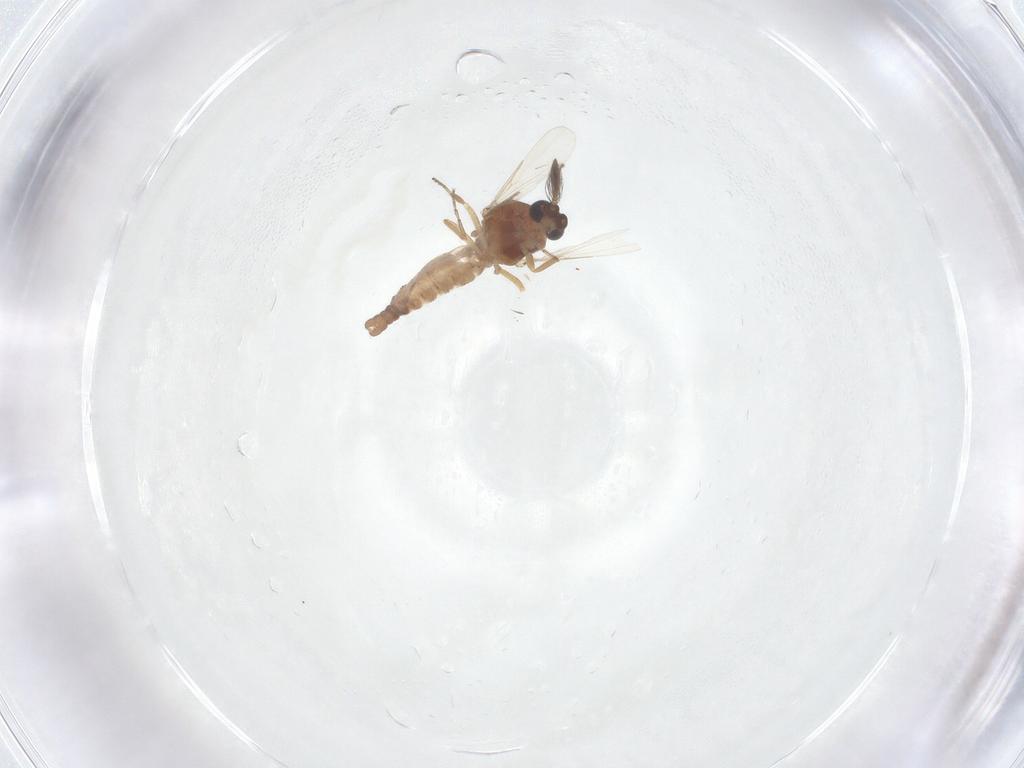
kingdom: Animalia
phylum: Arthropoda
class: Insecta
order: Diptera
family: Ceratopogonidae
